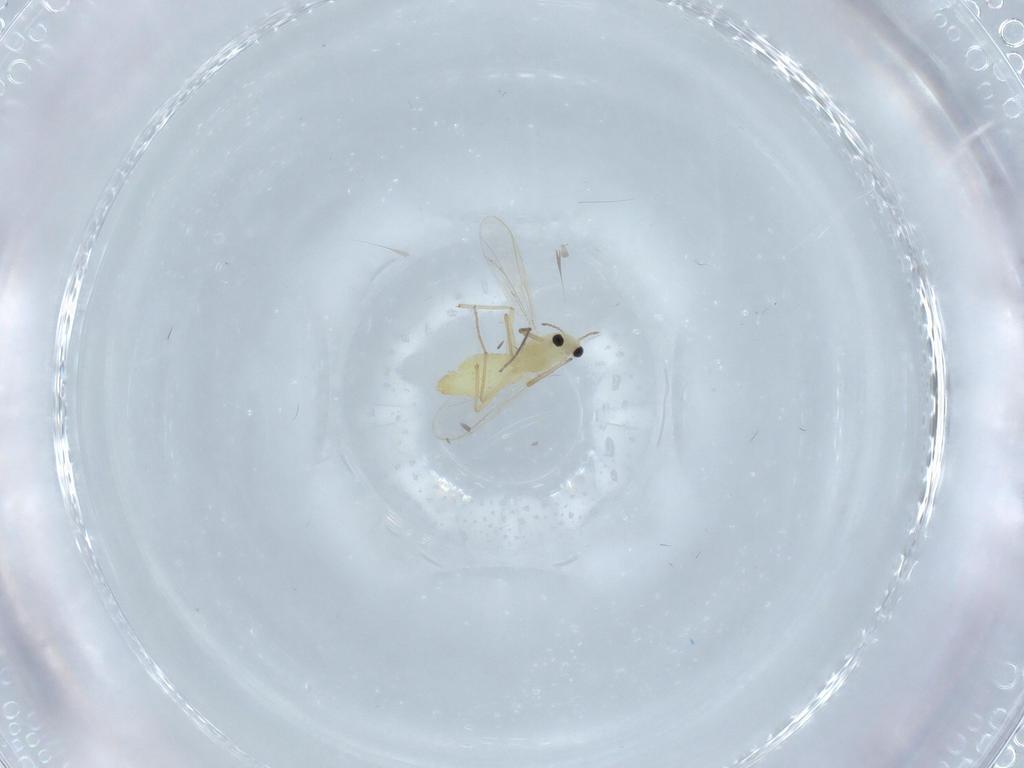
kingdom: Animalia
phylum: Arthropoda
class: Insecta
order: Diptera
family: Chironomidae
